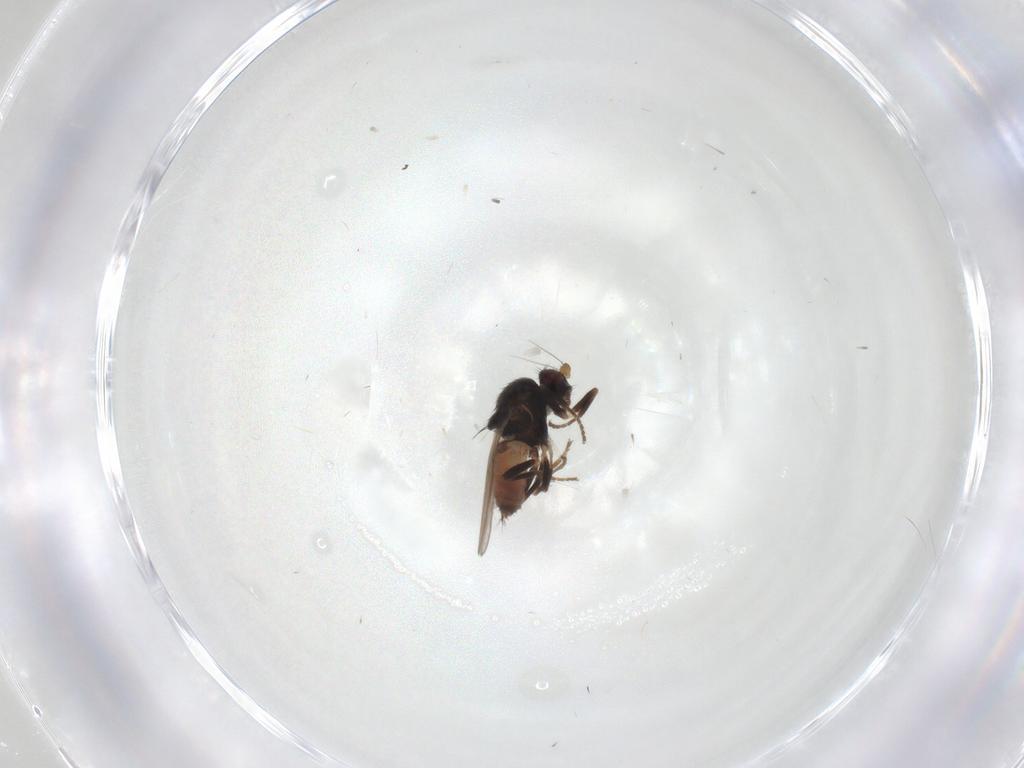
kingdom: Animalia
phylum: Arthropoda
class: Insecta
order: Diptera
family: Sphaeroceridae
